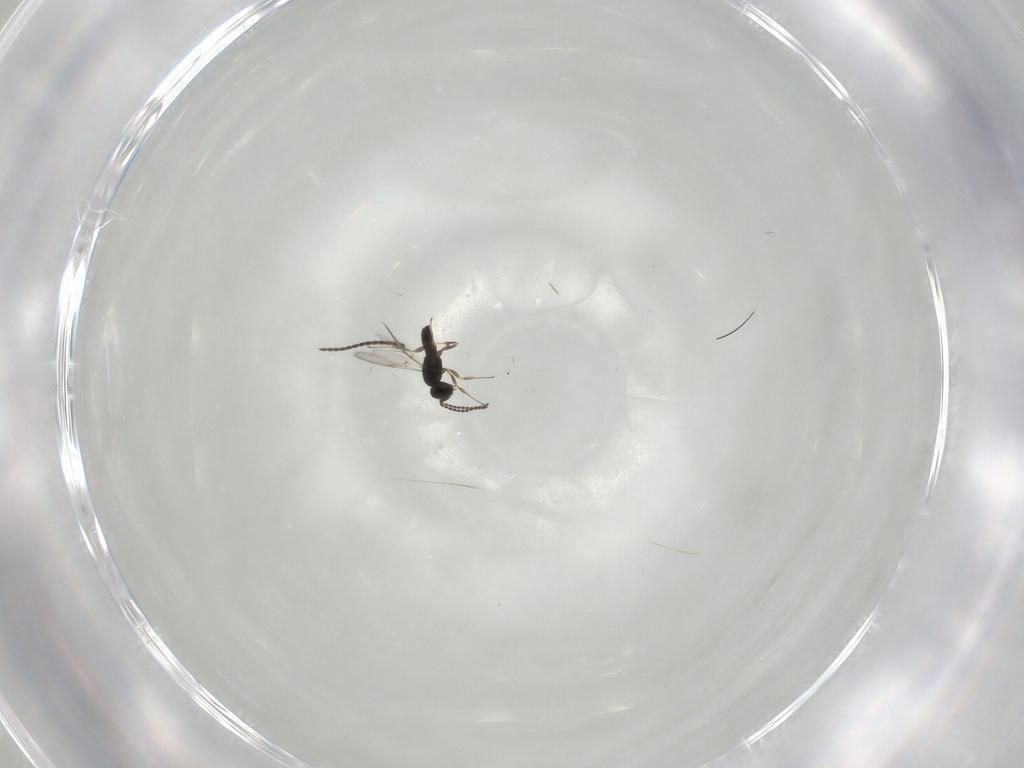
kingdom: Animalia
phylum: Arthropoda
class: Insecta
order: Hymenoptera
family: Scelionidae
